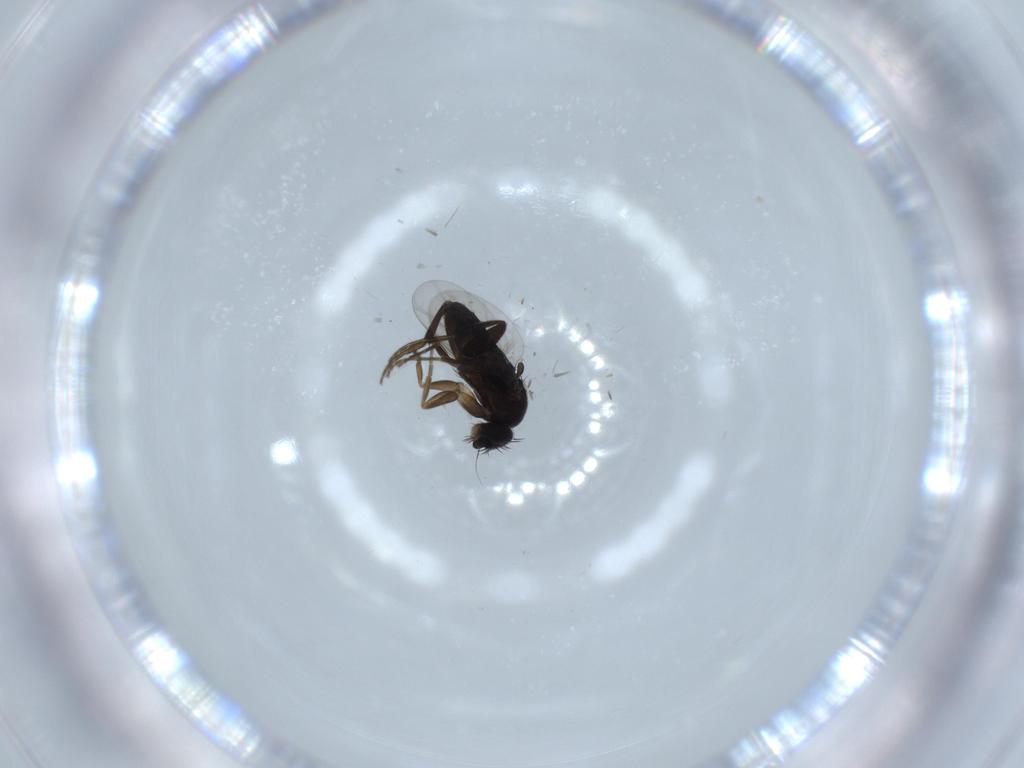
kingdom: Animalia
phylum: Arthropoda
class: Insecta
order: Diptera
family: Phoridae
